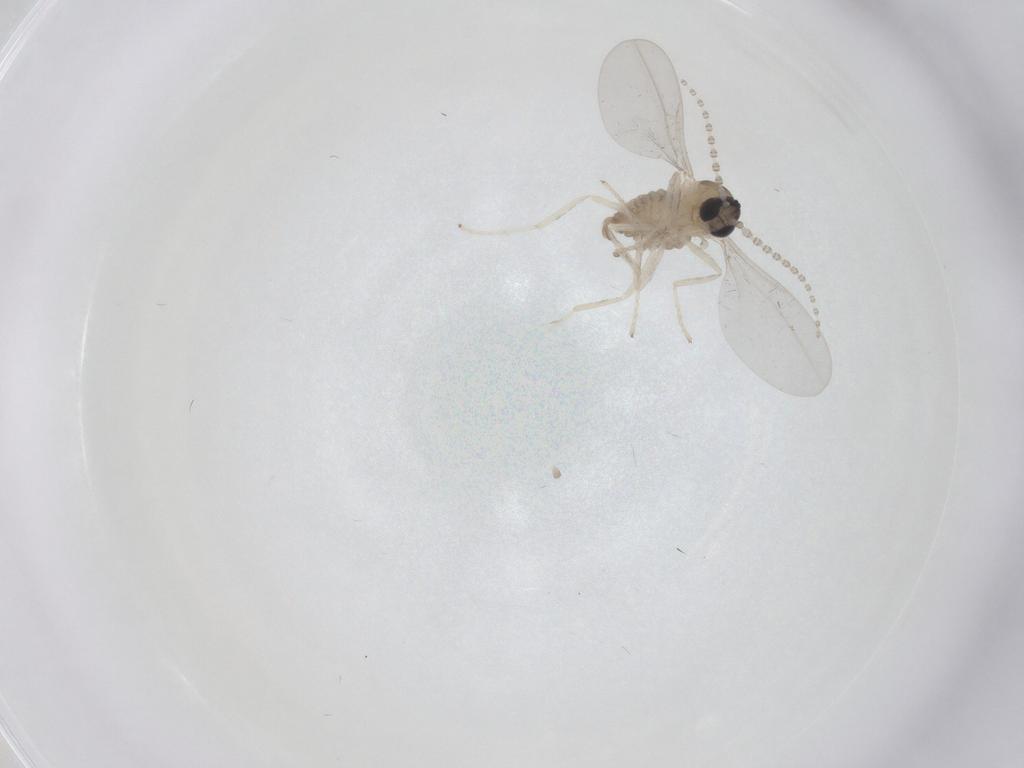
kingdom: Animalia
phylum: Arthropoda
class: Insecta
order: Diptera
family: Cecidomyiidae
